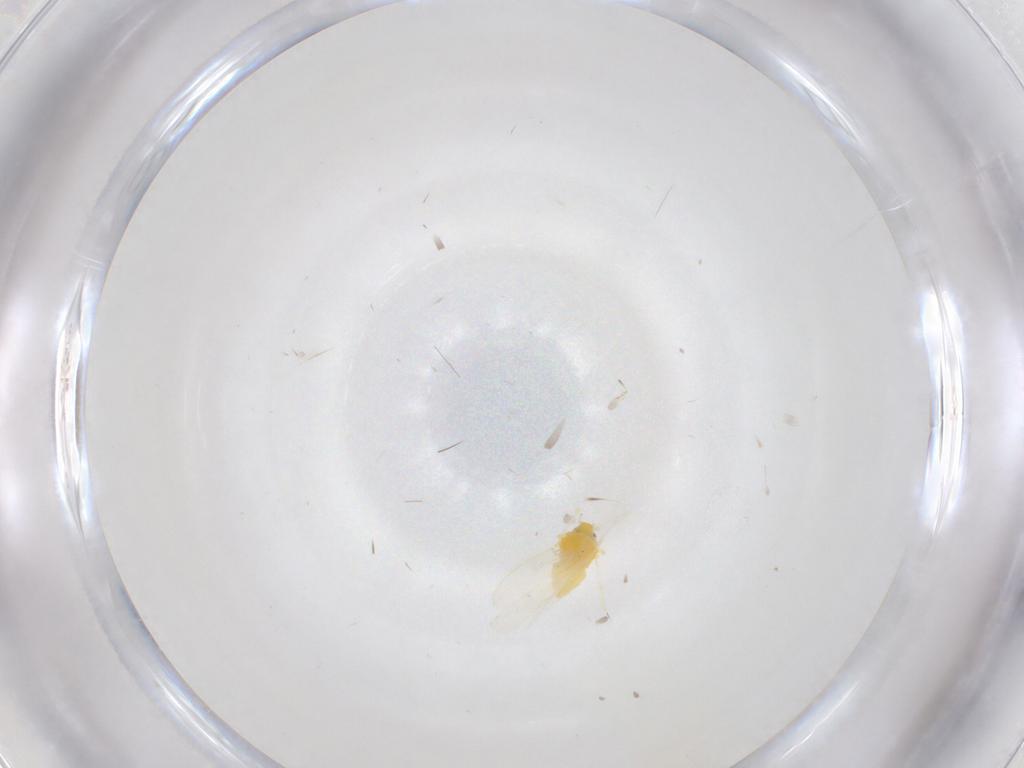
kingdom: Animalia
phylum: Arthropoda
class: Insecta
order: Hemiptera
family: Aleyrodidae
